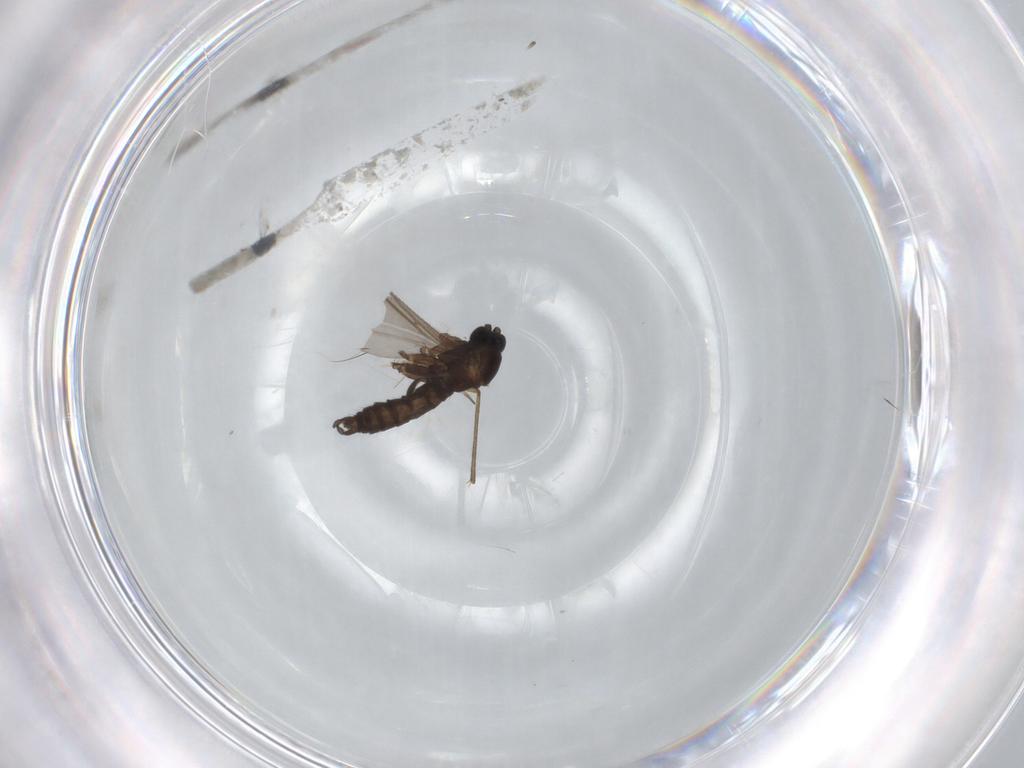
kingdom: Animalia
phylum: Arthropoda
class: Insecta
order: Diptera
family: Sciaridae
